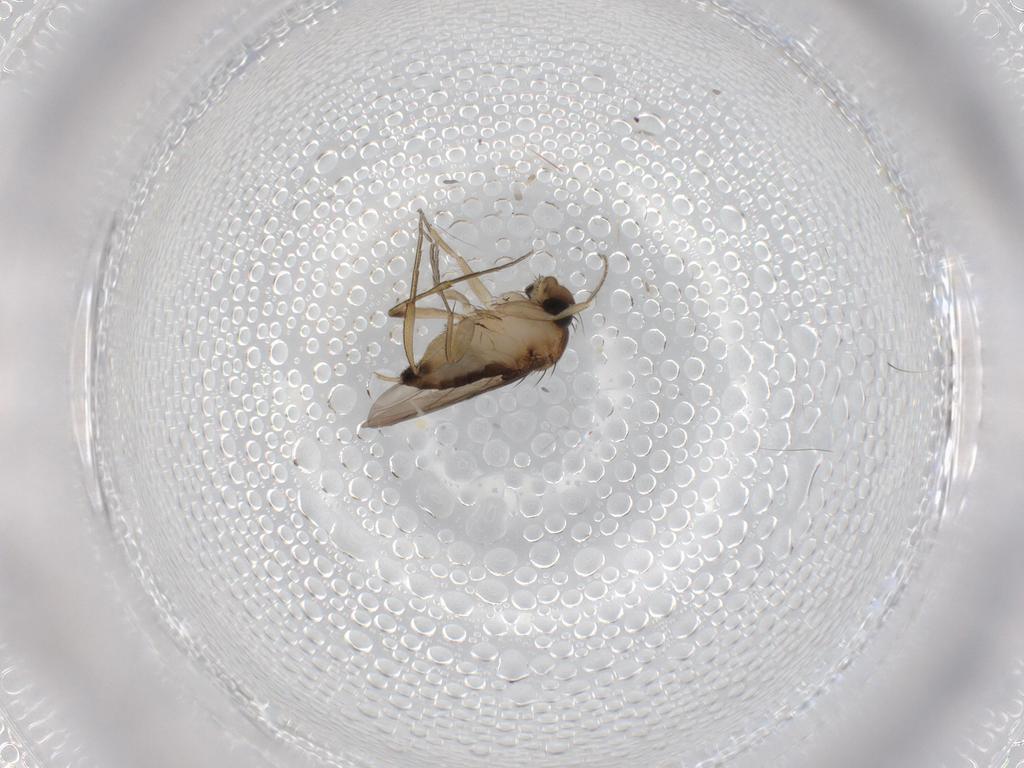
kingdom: Animalia
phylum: Arthropoda
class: Insecta
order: Diptera
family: Phoridae
